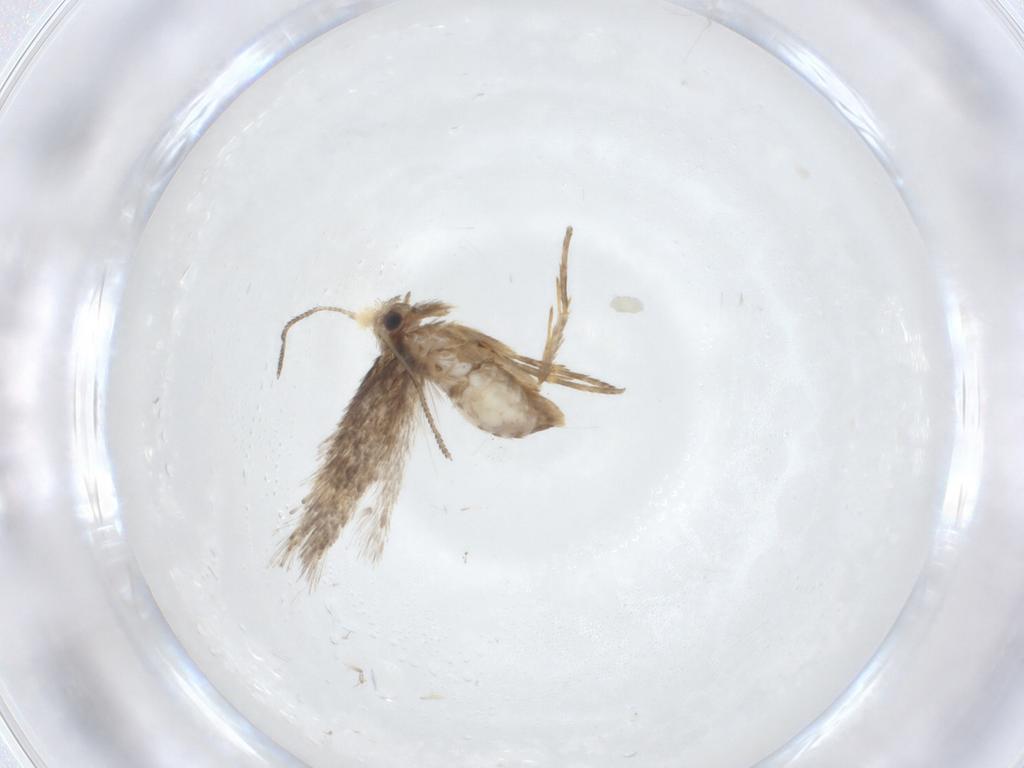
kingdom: Animalia
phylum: Arthropoda
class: Insecta
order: Lepidoptera
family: Nepticulidae
